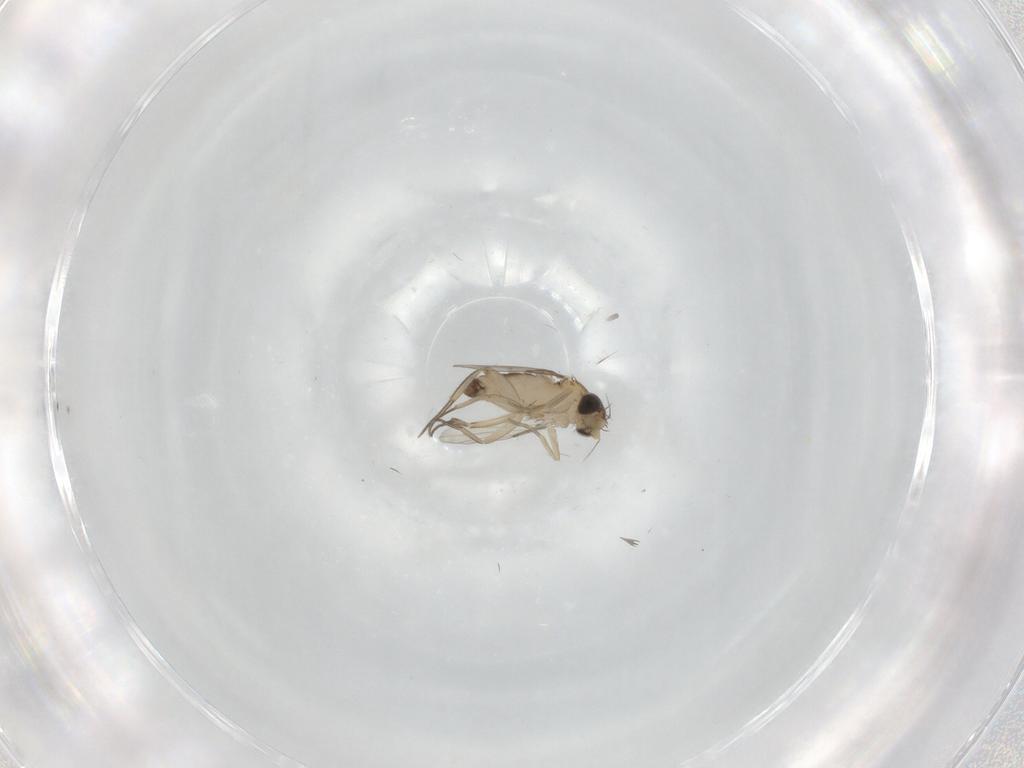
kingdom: Animalia
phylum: Arthropoda
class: Insecta
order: Diptera
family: Phoridae
